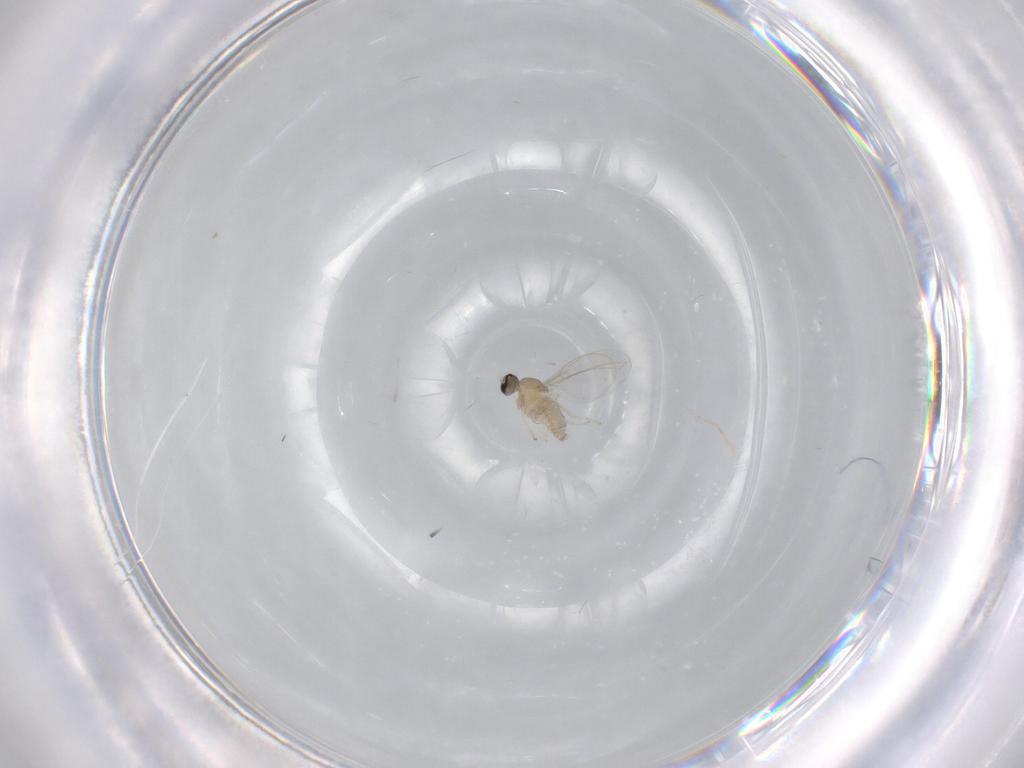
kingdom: Animalia
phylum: Arthropoda
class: Insecta
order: Diptera
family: Cecidomyiidae
